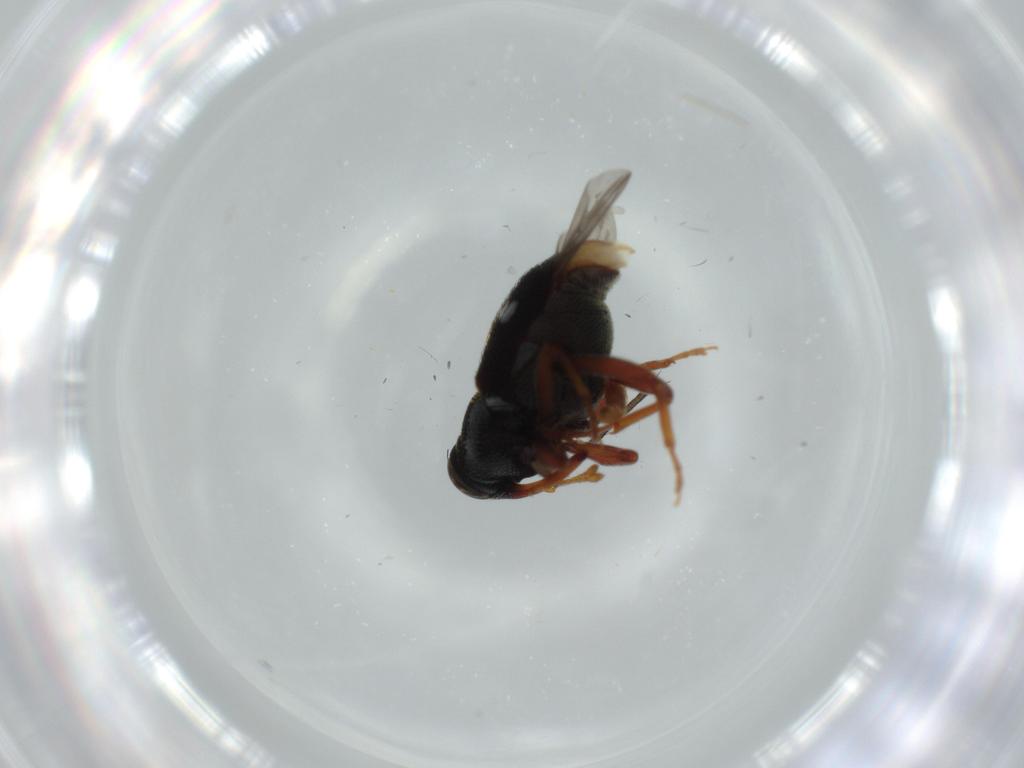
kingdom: Animalia
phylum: Arthropoda
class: Insecta
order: Coleoptera
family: Curculionidae
